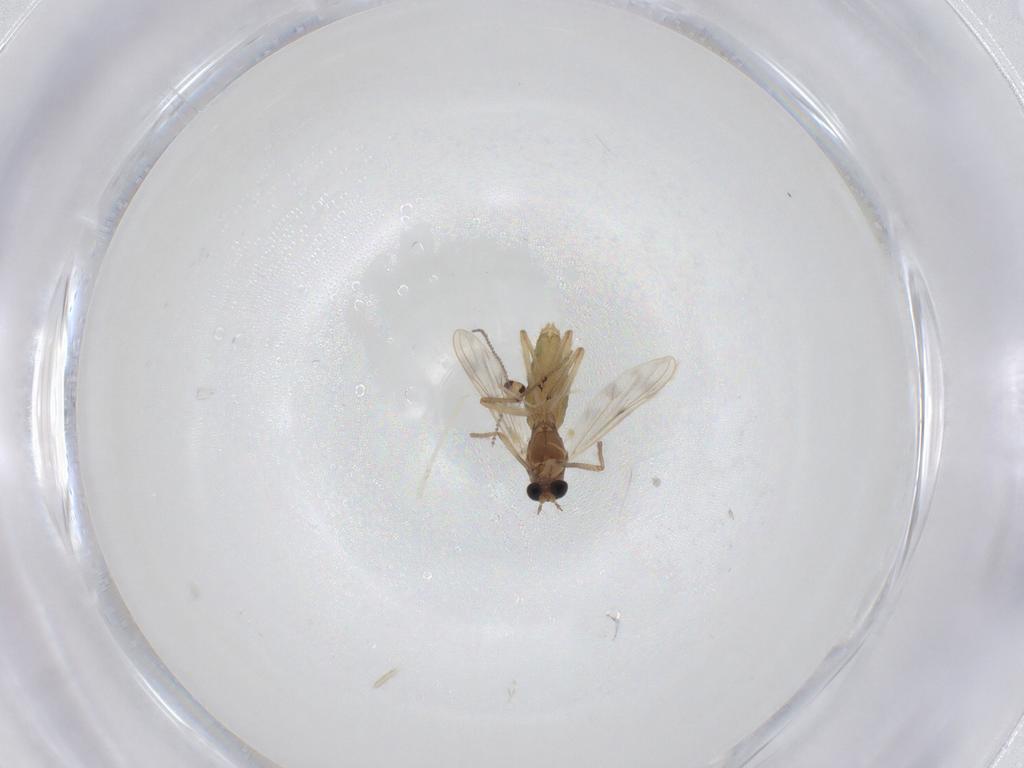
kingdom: Animalia
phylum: Arthropoda
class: Insecta
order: Diptera
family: Chironomidae
